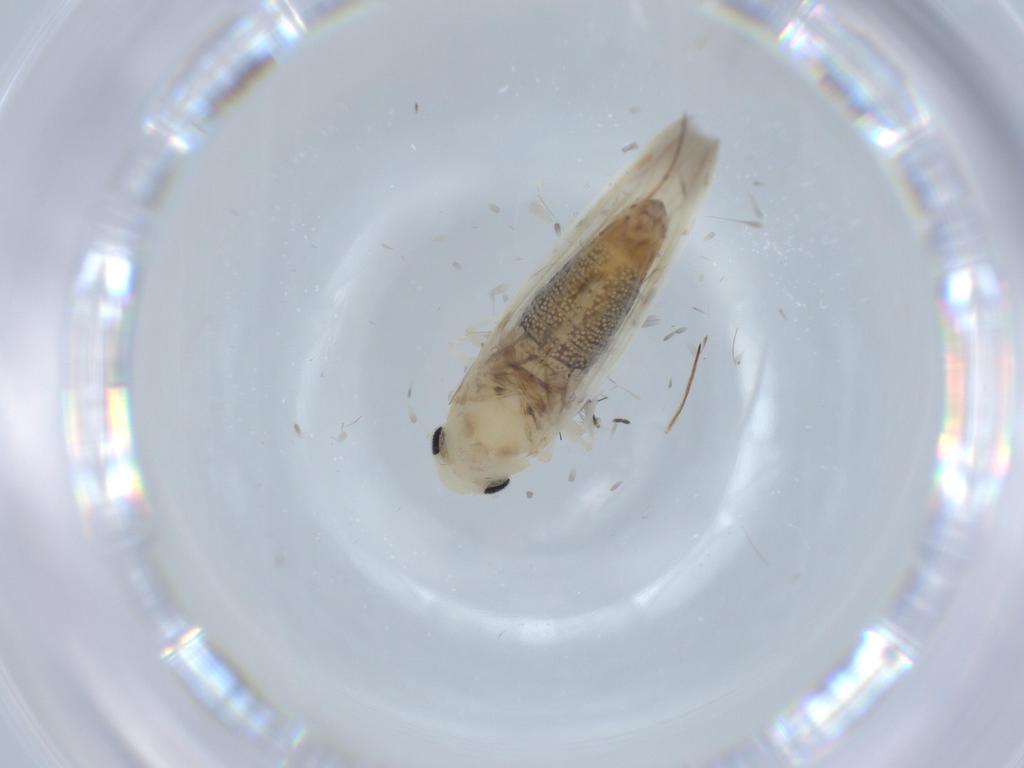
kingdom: Animalia
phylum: Arthropoda
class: Insecta
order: Hemiptera
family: Cicadellidae
